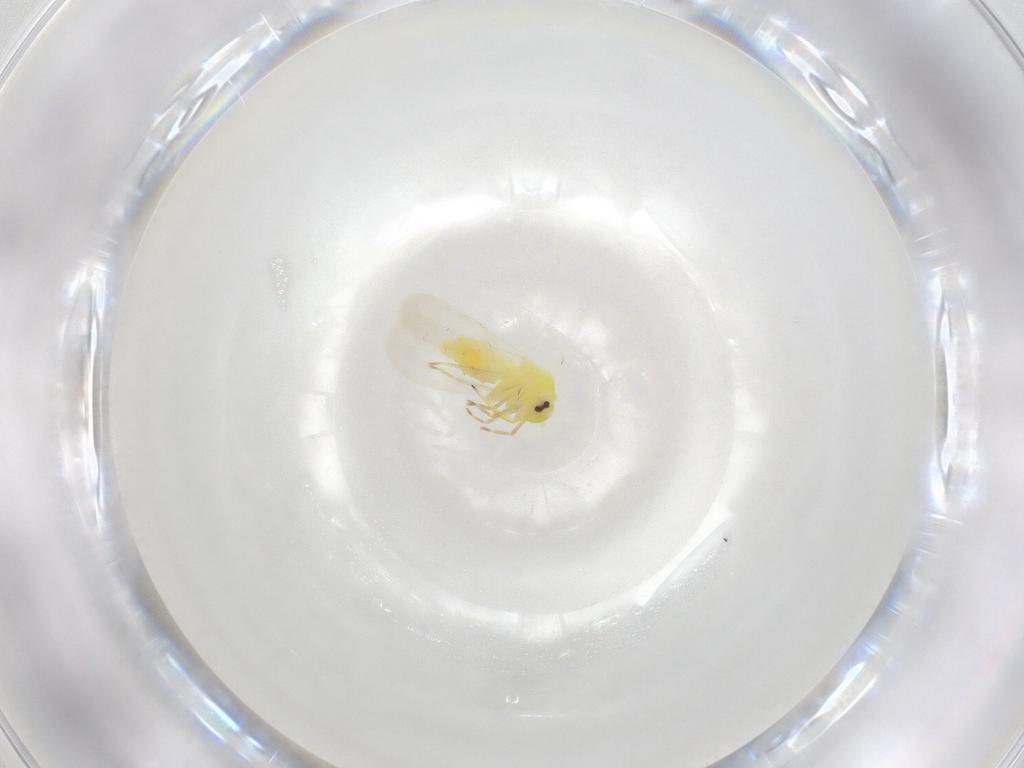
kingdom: Animalia
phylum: Arthropoda
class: Insecta
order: Hemiptera
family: Aleyrodidae
